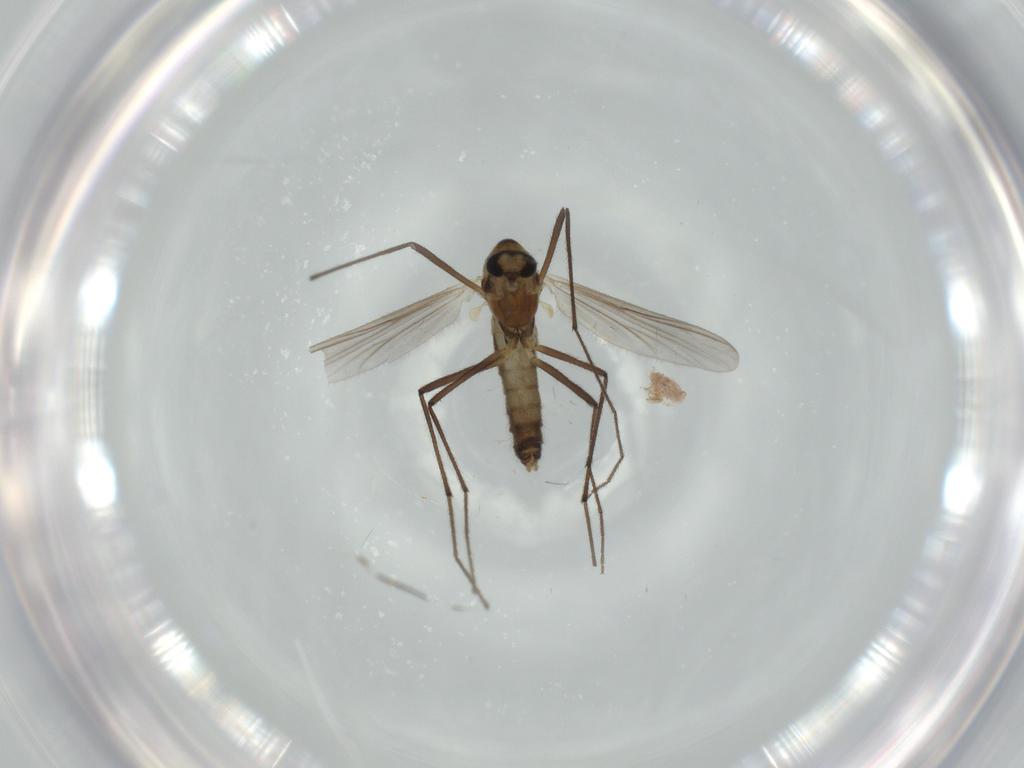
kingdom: Animalia
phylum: Arthropoda
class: Insecta
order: Diptera
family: Chironomidae
